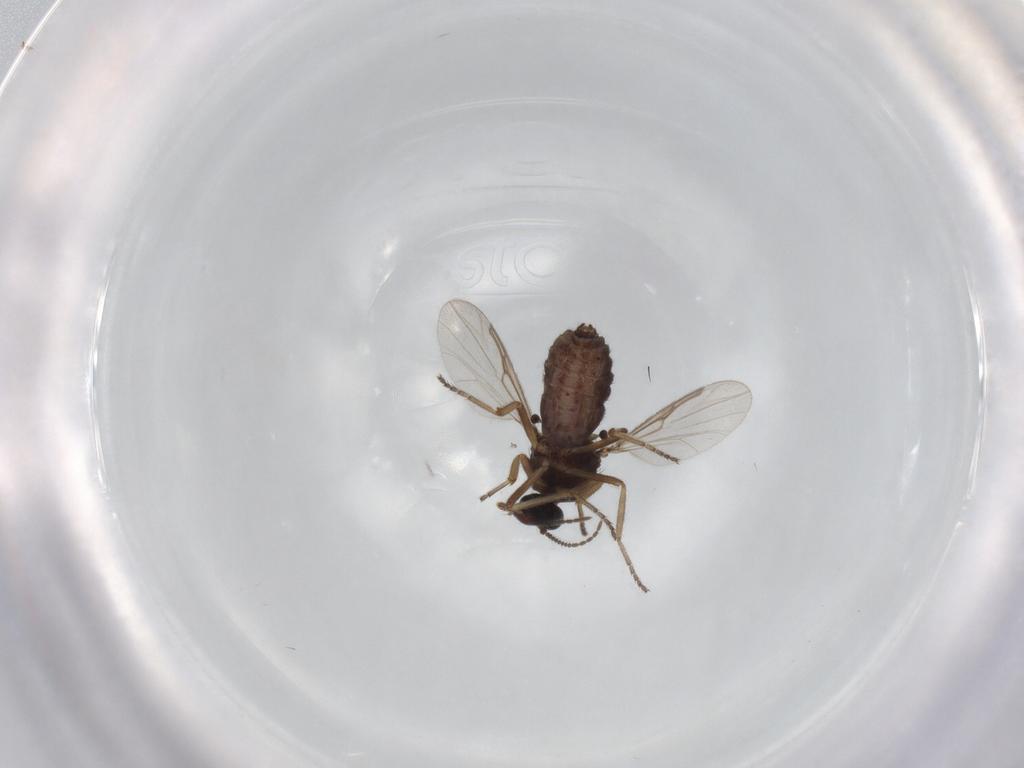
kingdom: Animalia
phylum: Arthropoda
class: Insecta
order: Diptera
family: Ceratopogonidae
